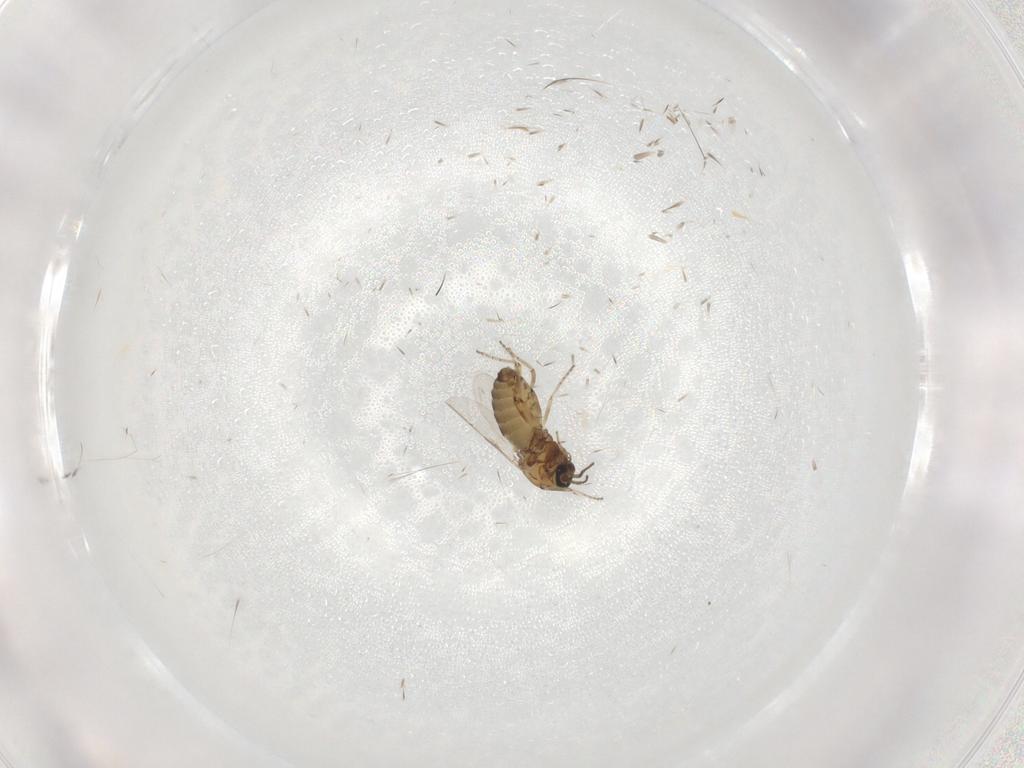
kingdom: Animalia
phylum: Arthropoda
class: Insecta
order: Diptera
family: Ceratopogonidae
